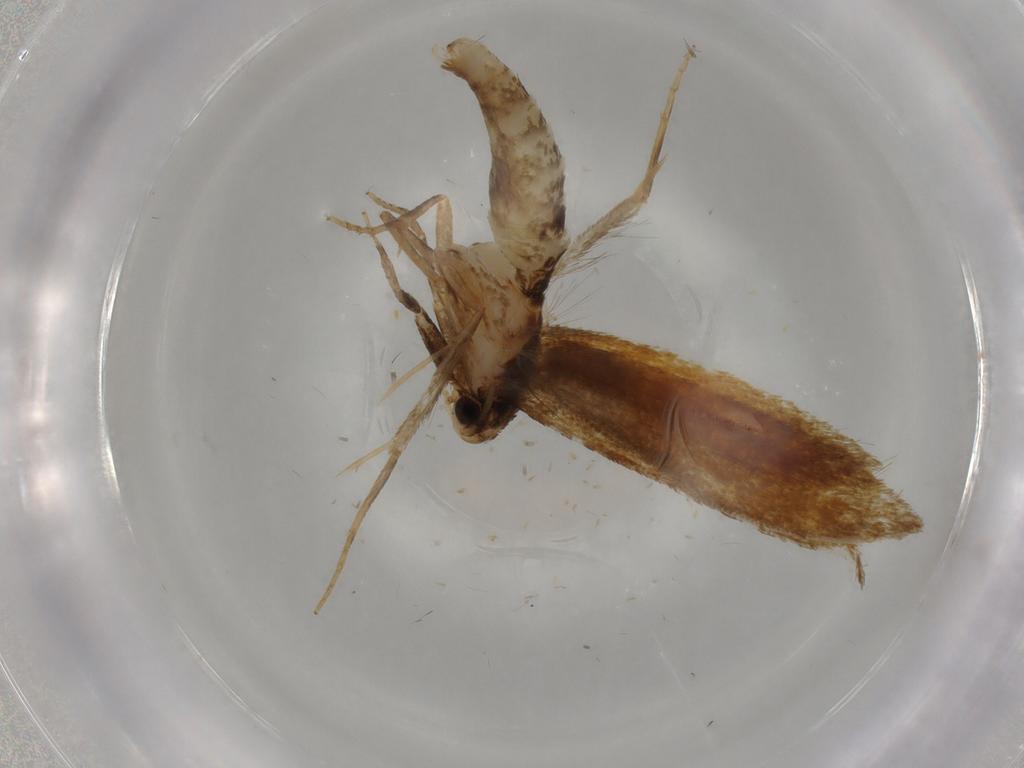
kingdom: Animalia
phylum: Arthropoda
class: Insecta
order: Lepidoptera
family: Tineidae
